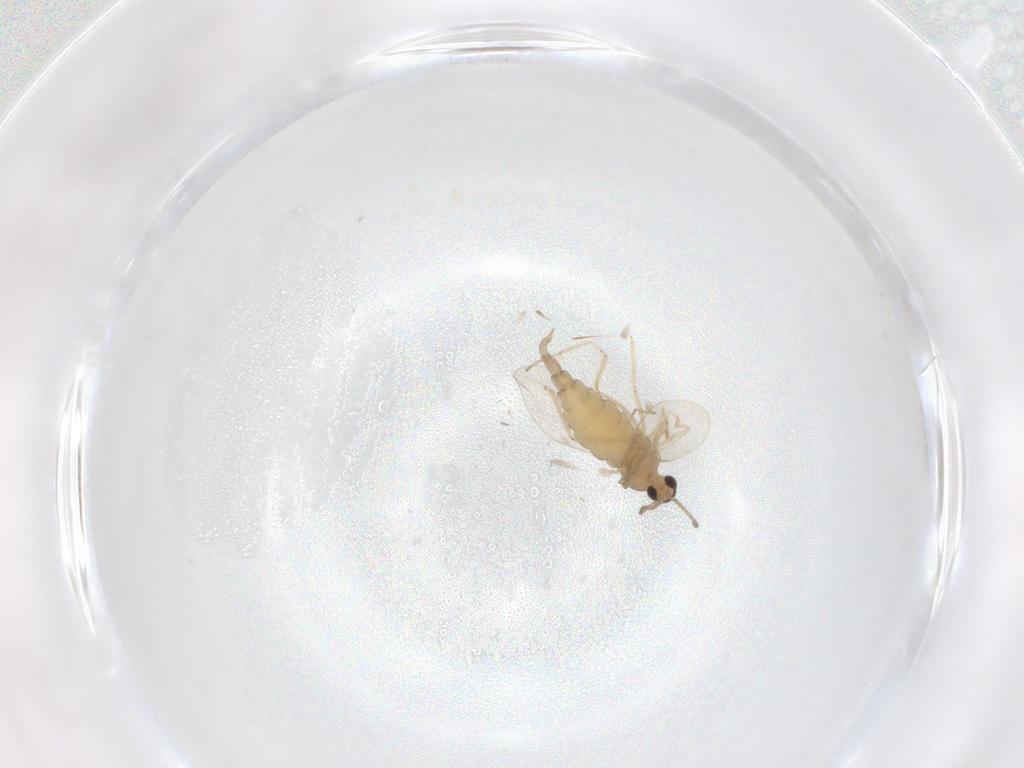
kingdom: Animalia
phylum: Arthropoda
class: Insecta
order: Diptera
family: Cecidomyiidae
